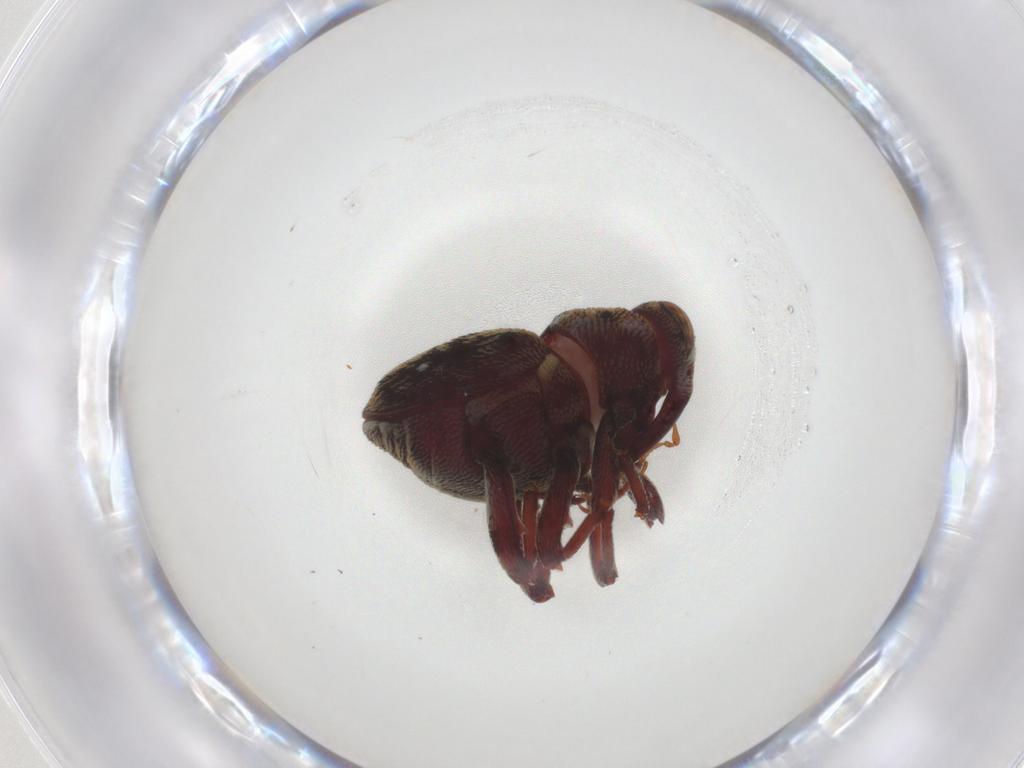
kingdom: Animalia
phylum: Arthropoda
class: Insecta
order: Coleoptera
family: Curculionidae
